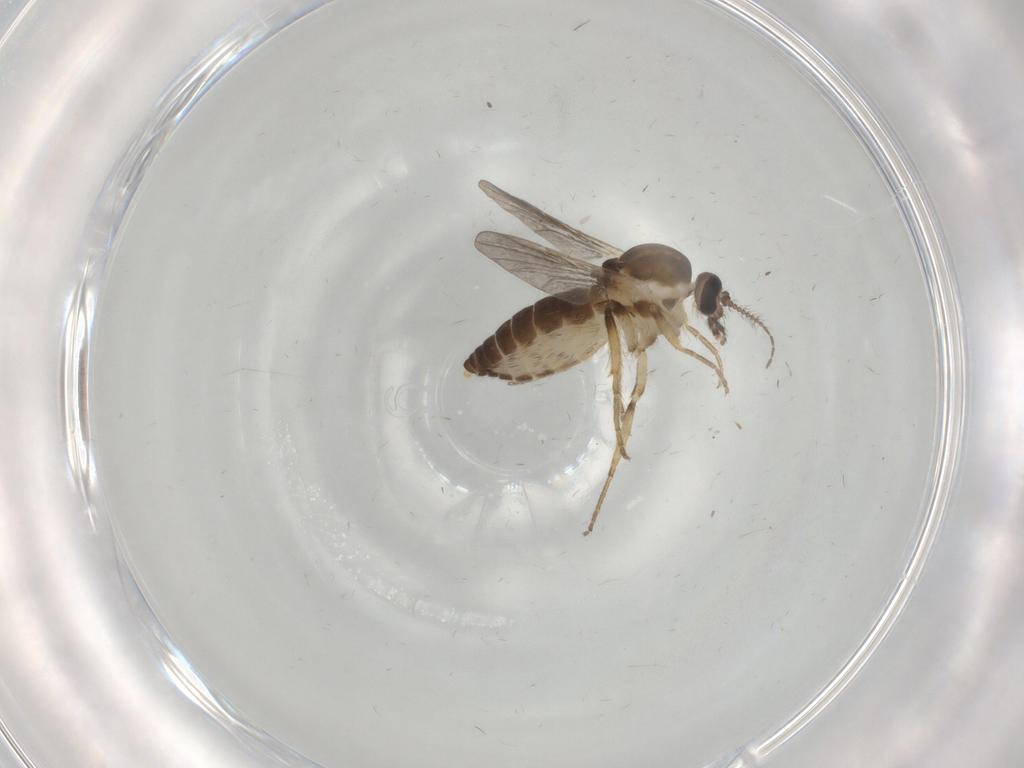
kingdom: Animalia
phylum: Arthropoda
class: Insecta
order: Diptera
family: Ceratopogonidae
